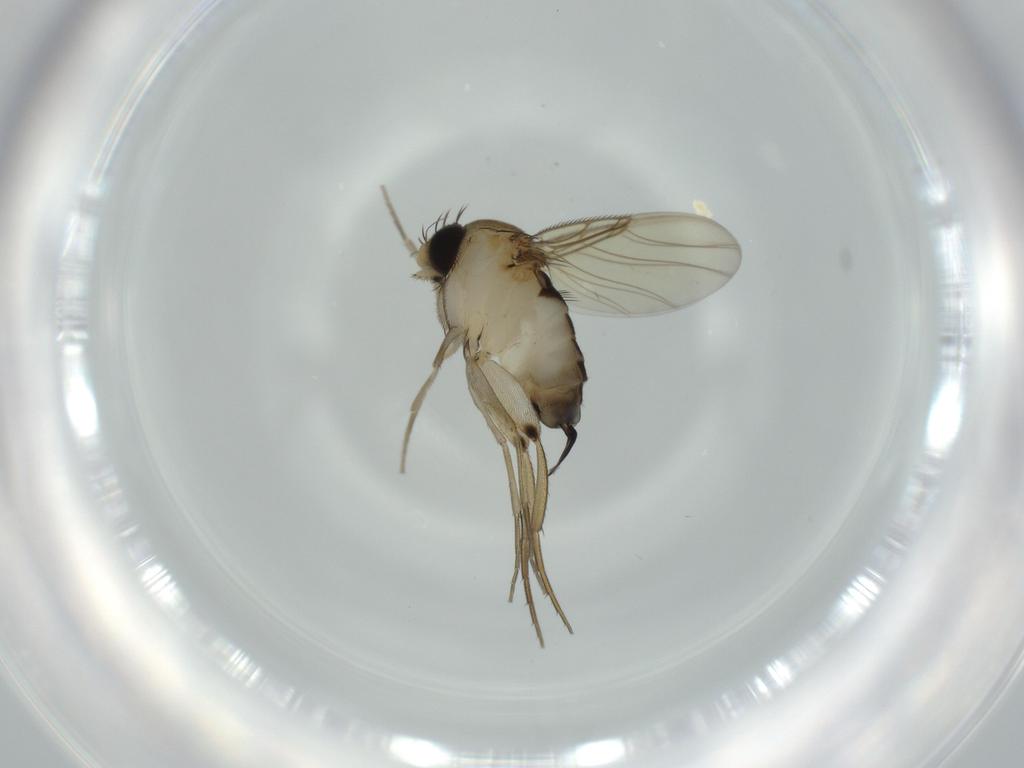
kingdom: Animalia
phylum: Arthropoda
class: Insecta
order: Diptera
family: Phoridae
